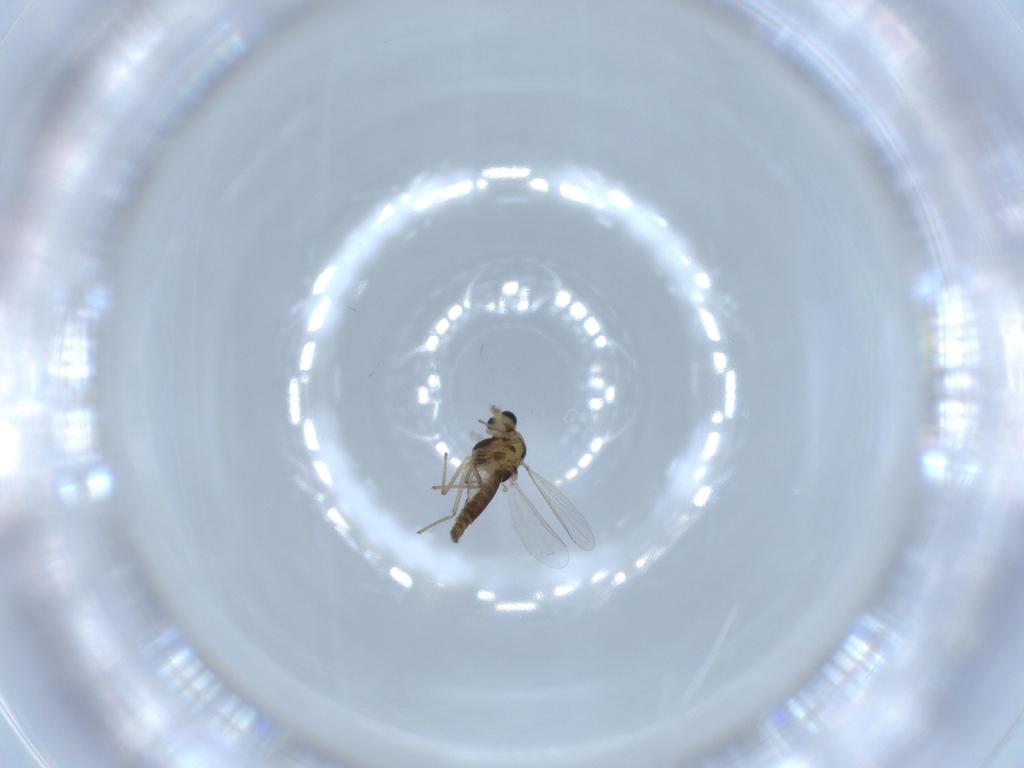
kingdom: Animalia
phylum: Arthropoda
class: Insecta
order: Diptera
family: Chironomidae
